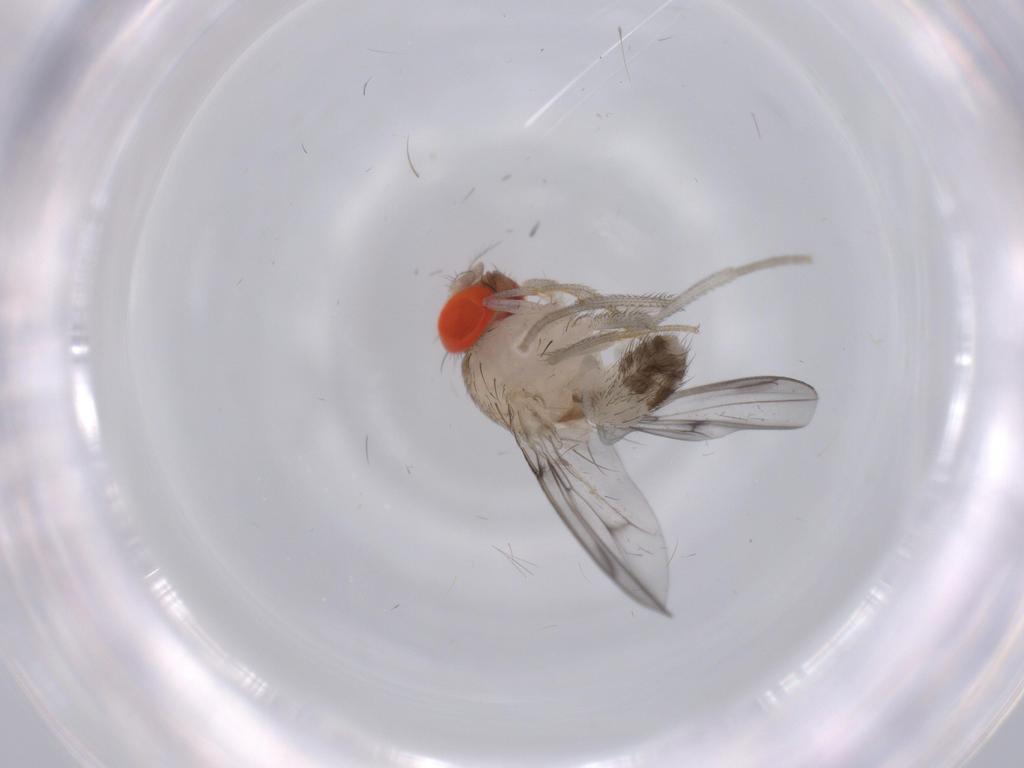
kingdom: Animalia
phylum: Arthropoda
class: Insecta
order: Diptera
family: Drosophilidae
